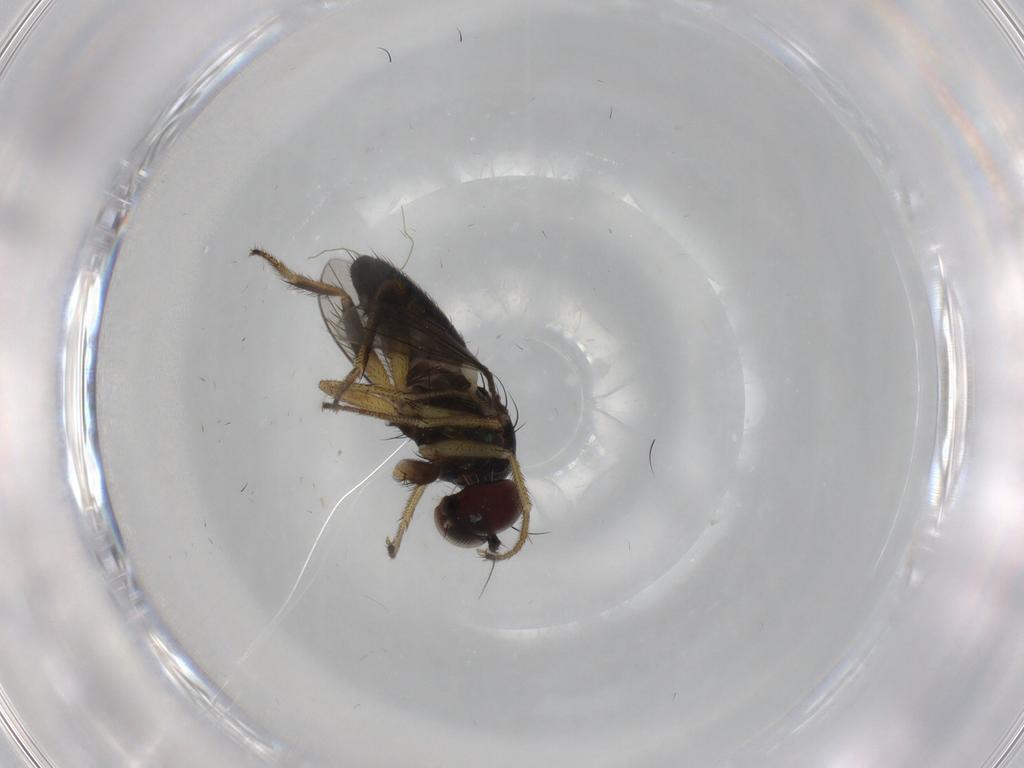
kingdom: Animalia
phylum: Arthropoda
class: Insecta
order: Diptera
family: Dolichopodidae
